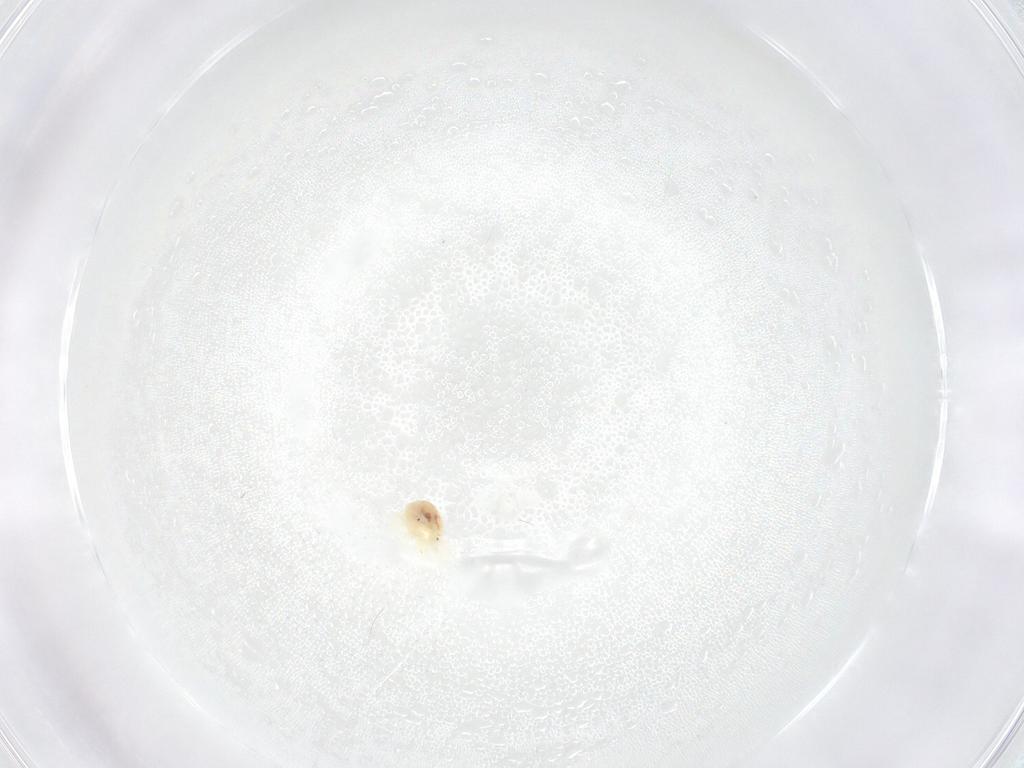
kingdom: Animalia
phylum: Arthropoda
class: Arachnida
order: Trombidiformes
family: Anystidae
